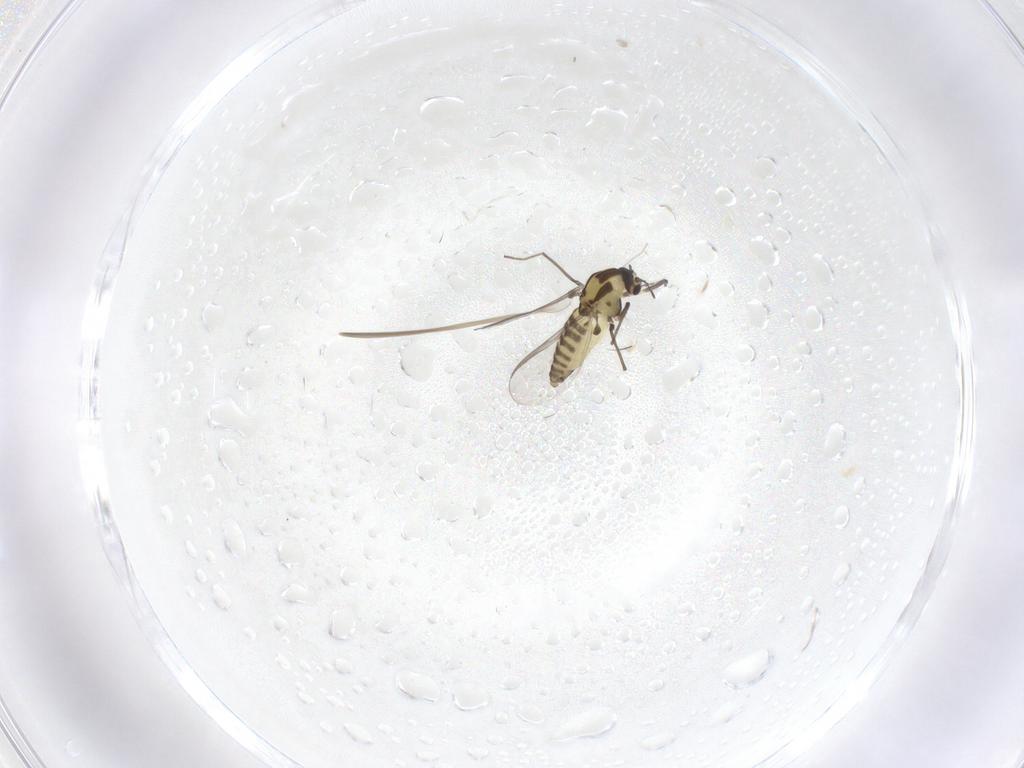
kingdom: Animalia
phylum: Arthropoda
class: Insecta
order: Diptera
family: Chironomidae
